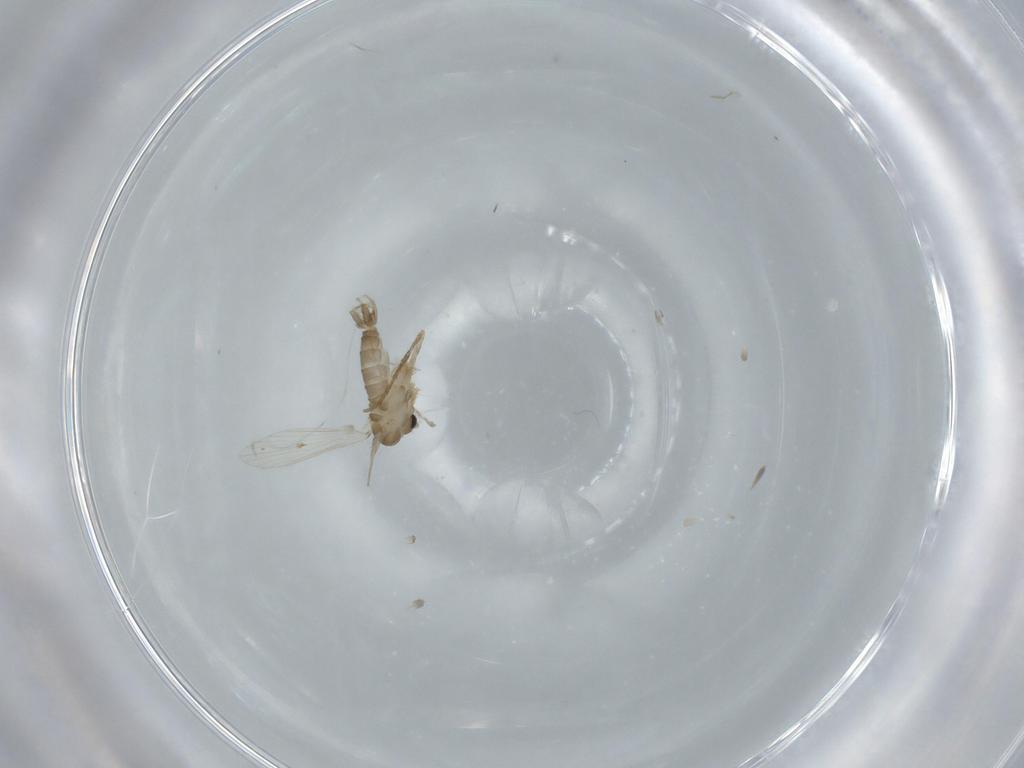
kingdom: Animalia
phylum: Arthropoda
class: Insecta
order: Diptera
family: Psychodidae
